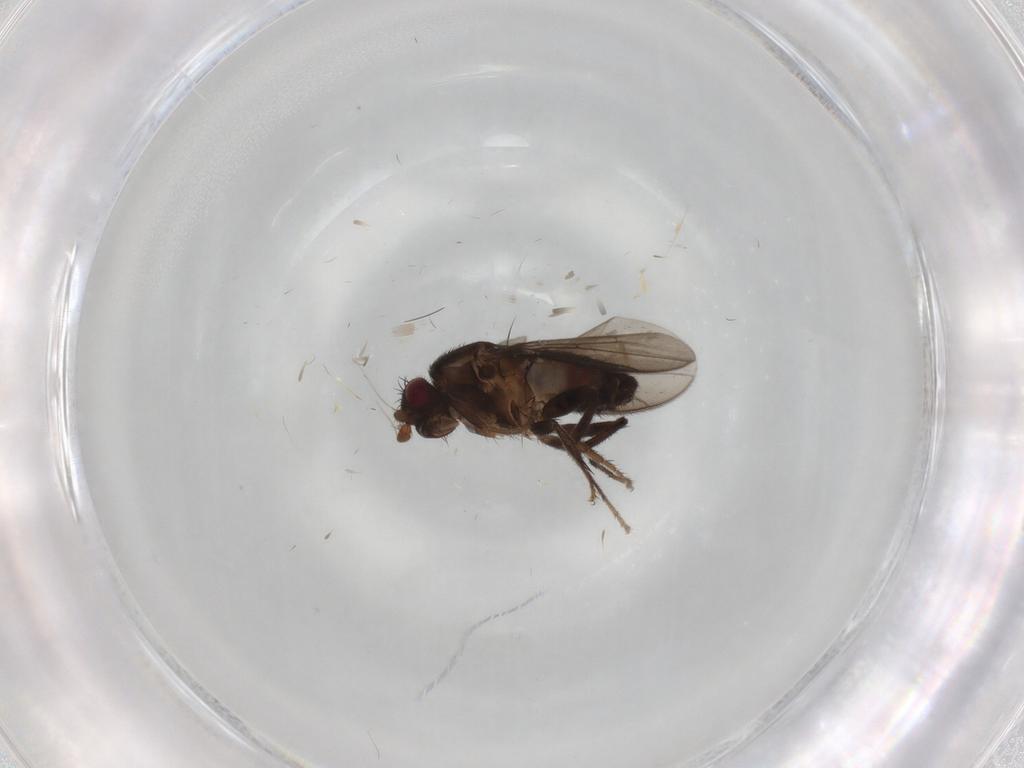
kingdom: Animalia
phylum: Arthropoda
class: Insecta
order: Diptera
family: Sphaeroceridae
